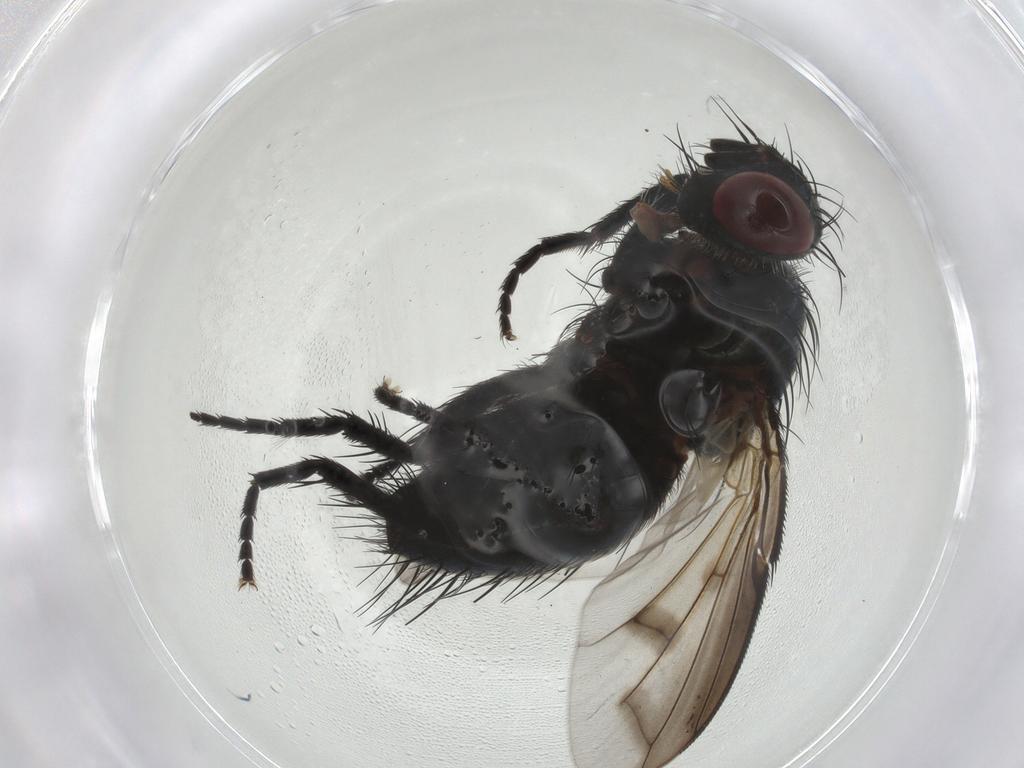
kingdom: Animalia
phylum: Arthropoda
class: Insecta
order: Diptera
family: Tachinidae
